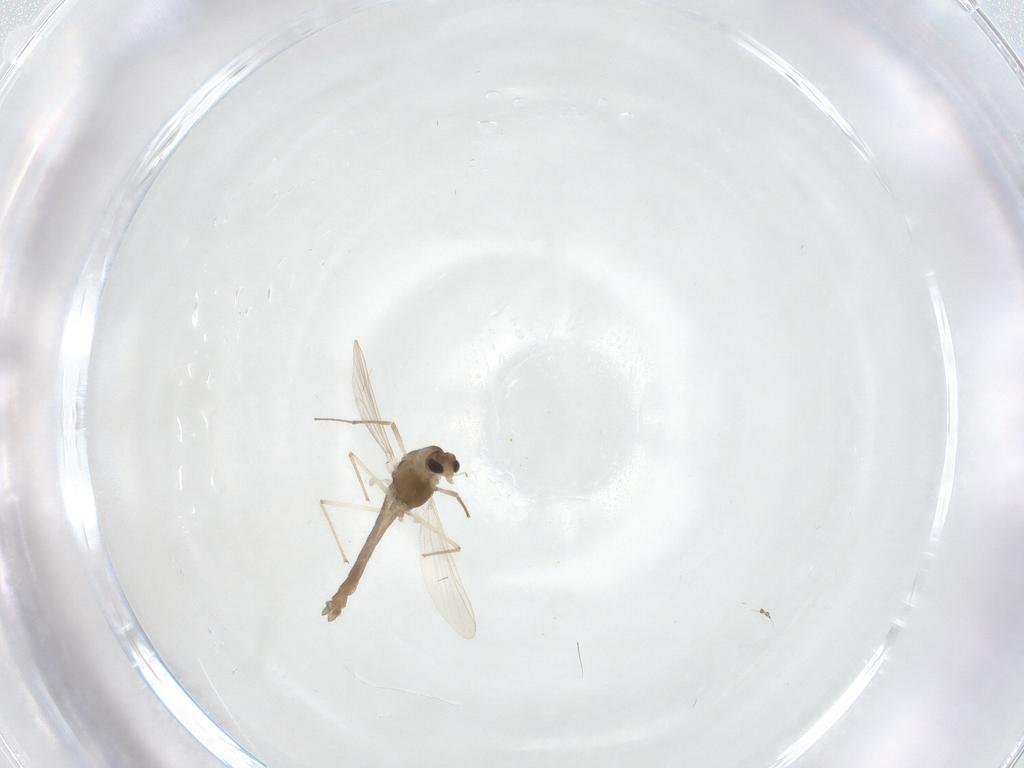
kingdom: Animalia
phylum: Arthropoda
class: Insecta
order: Diptera
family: Chironomidae
